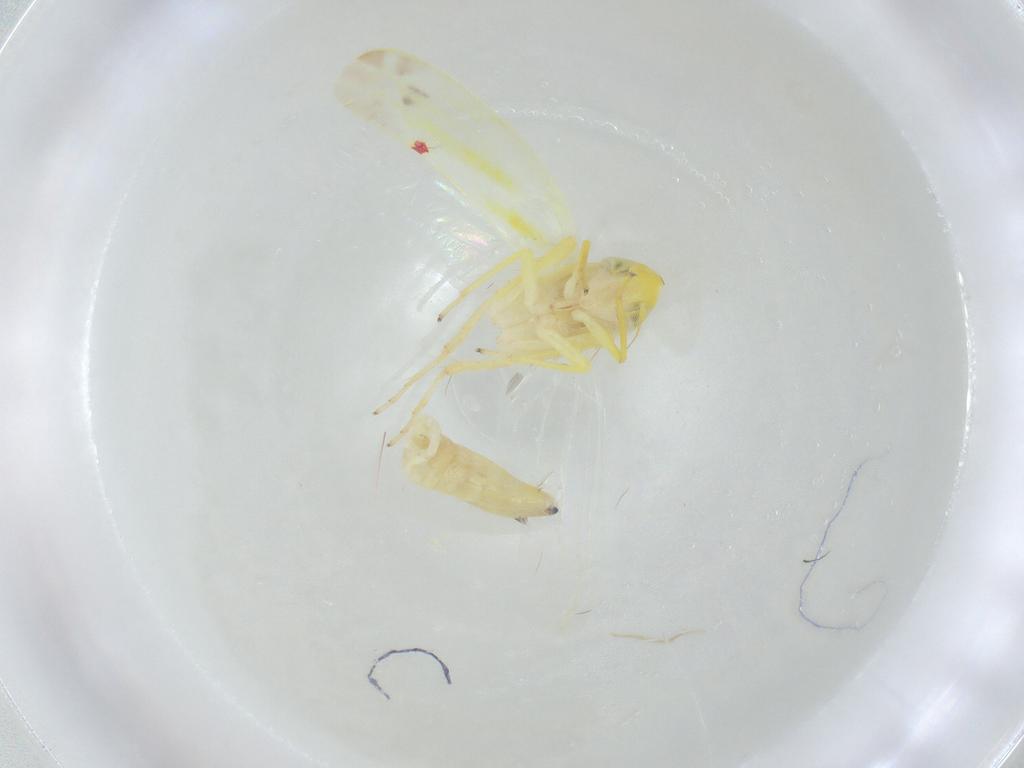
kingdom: Animalia
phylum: Arthropoda
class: Insecta
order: Hemiptera
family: Cicadellidae
